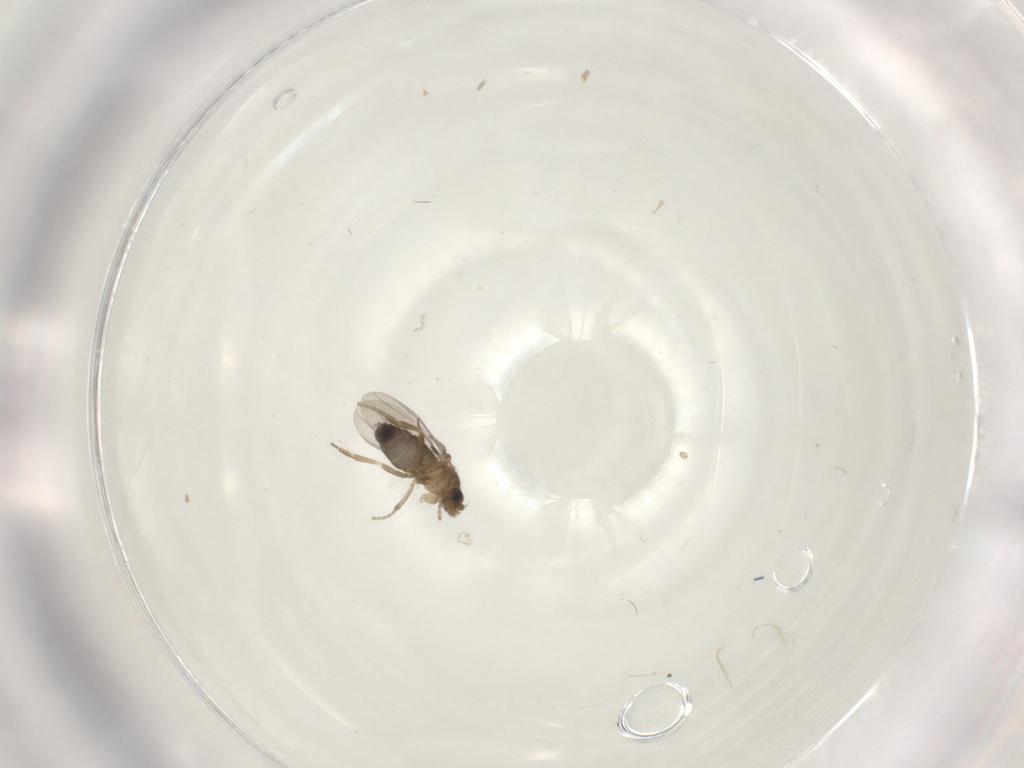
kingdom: Animalia
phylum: Arthropoda
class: Insecta
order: Diptera
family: Phoridae
